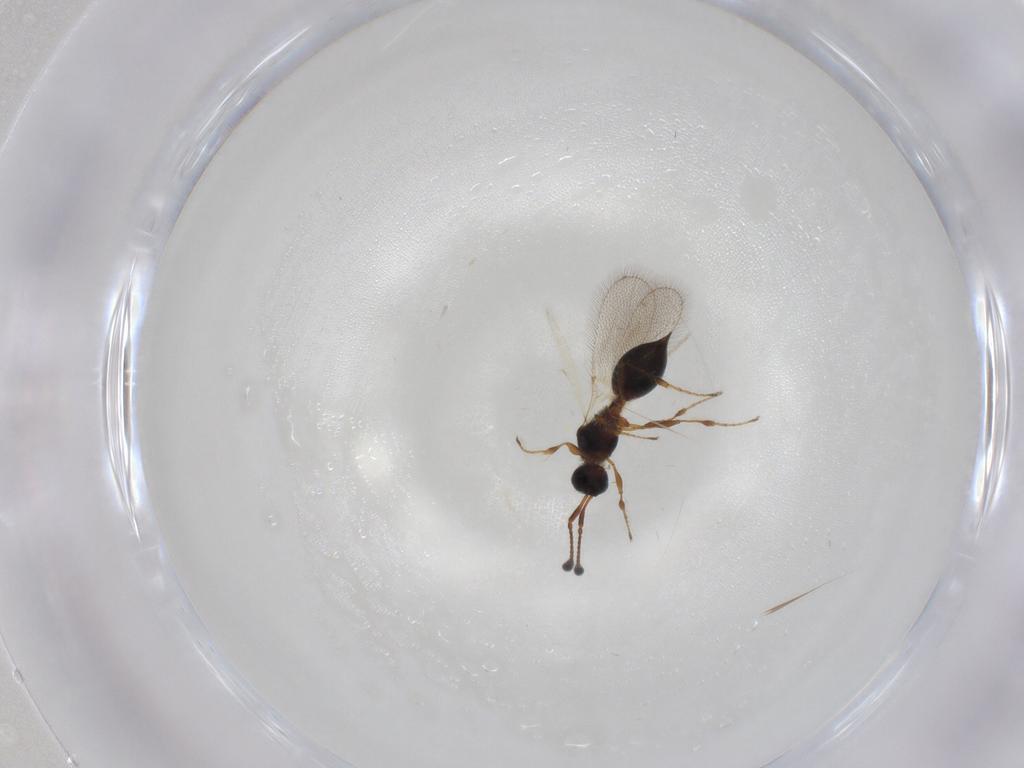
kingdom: Animalia
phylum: Arthropoda
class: Insecta
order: Hymenoptera
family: Diapriidae
